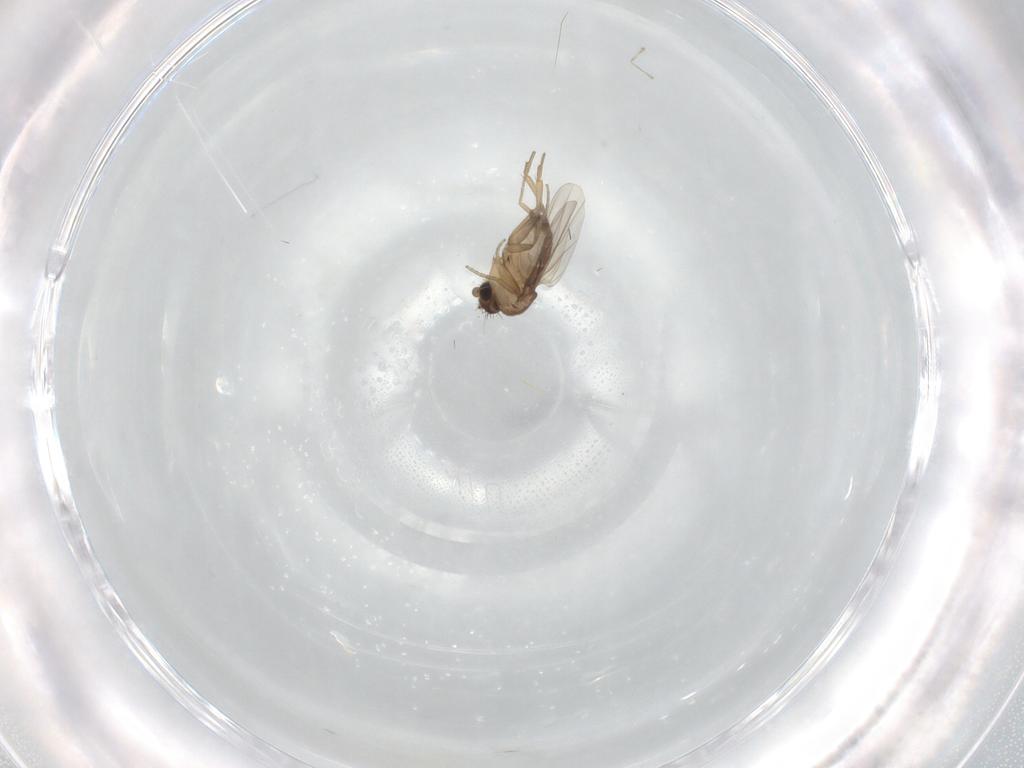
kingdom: Animalia
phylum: Arthropoda
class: Insecta
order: Diptera
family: Phoridae
